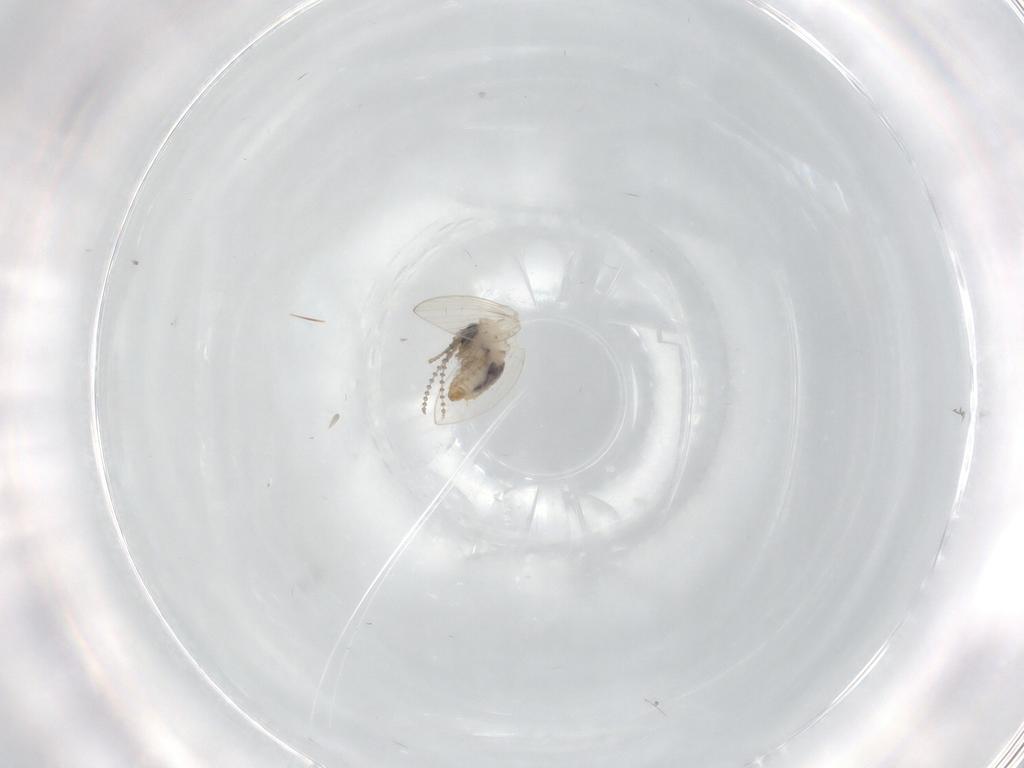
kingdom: Animalia
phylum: Arthropoda
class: Insecta
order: Diptera
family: Psychodidae
